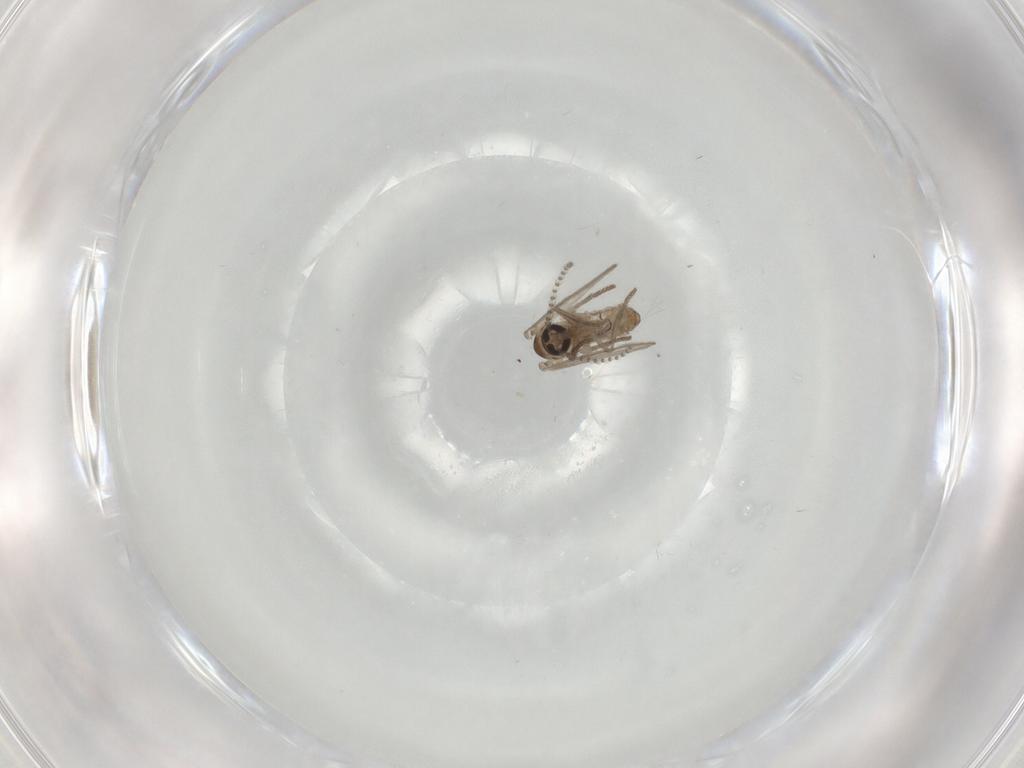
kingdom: Animalia
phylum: Arthropoda
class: Insecta
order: Diptera
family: Psychodidae
